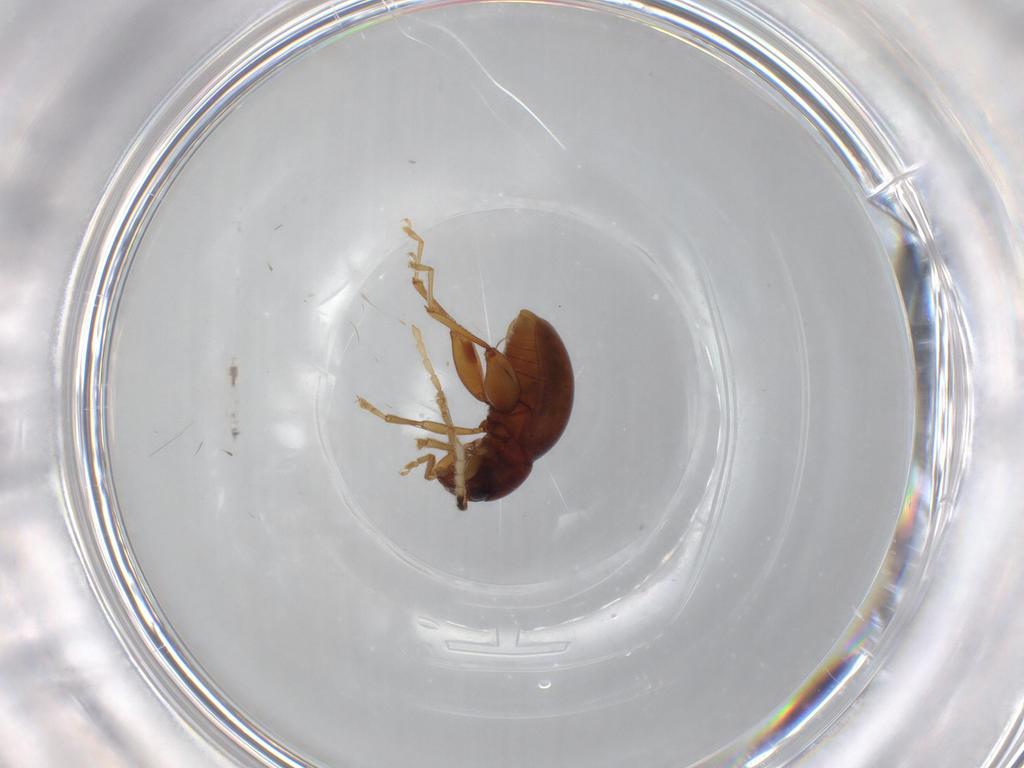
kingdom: Animalia
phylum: Arthropoda
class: Insecta
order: Coleoptera
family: Chrysomelidae
